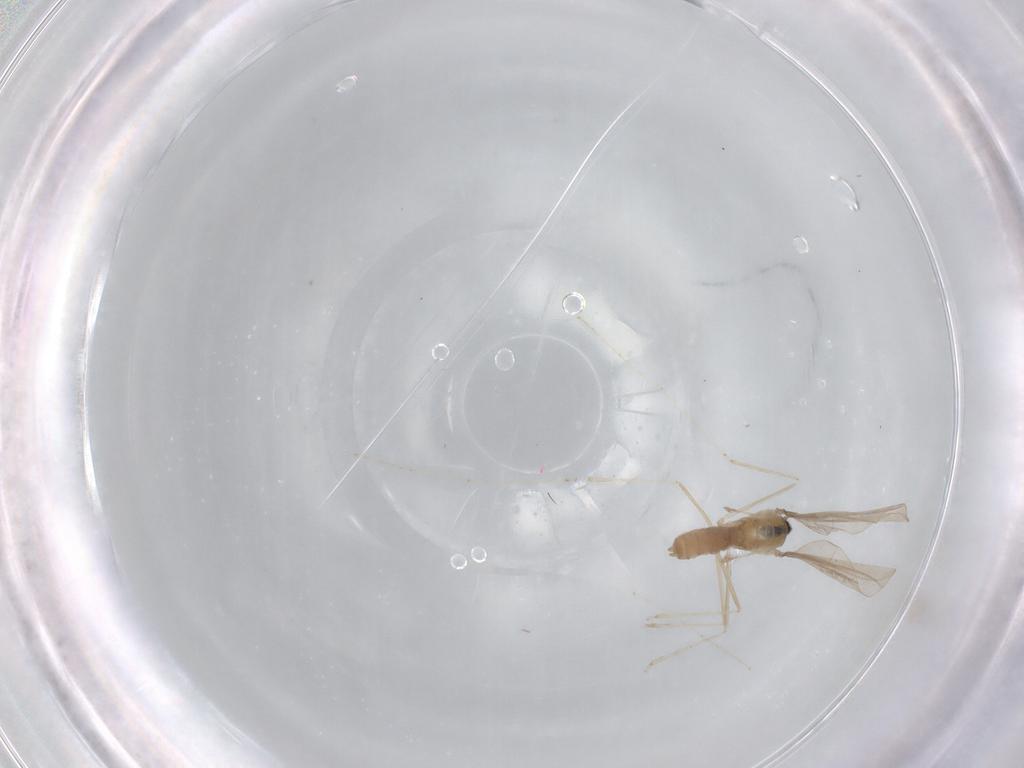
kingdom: Animalia
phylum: Arthropoda
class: Insecta
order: Diptera
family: Cecidomyiidae
